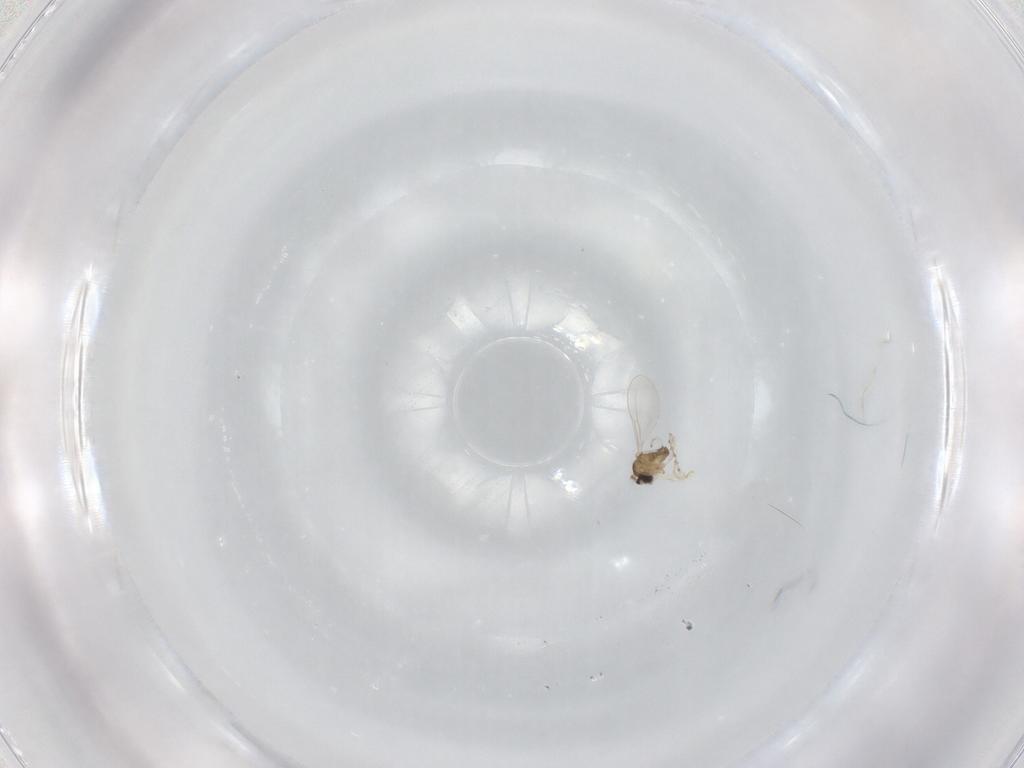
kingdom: Animalia
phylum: Arthropoda
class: Insecta
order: Diptera
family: Cecidomyiidae
